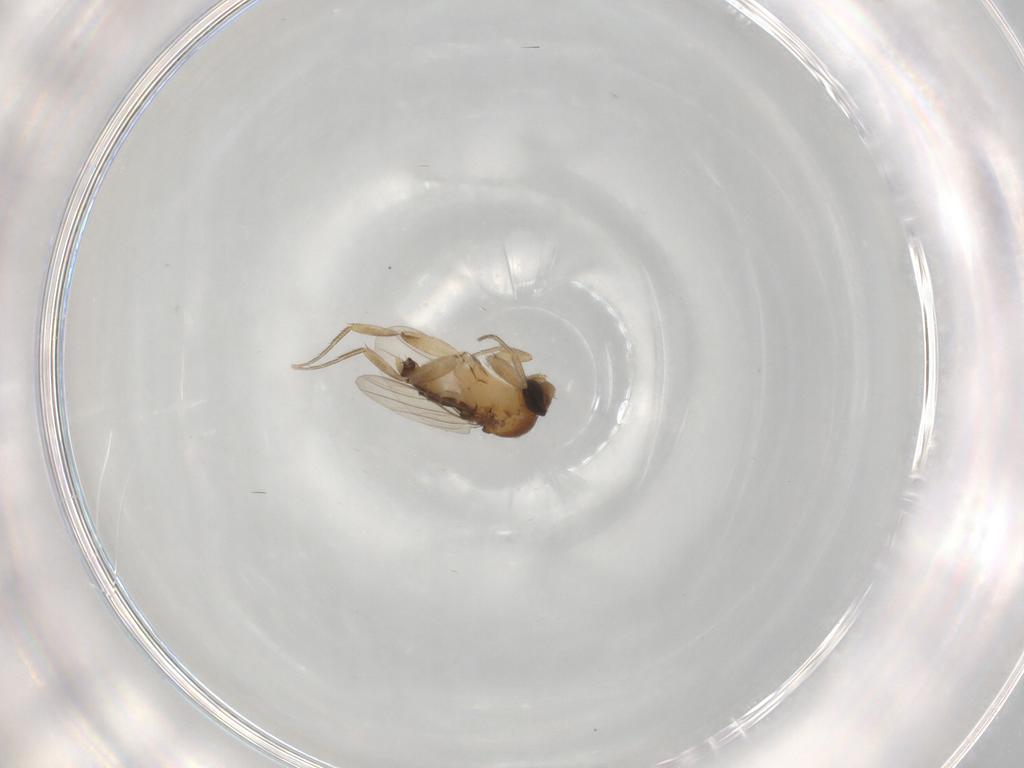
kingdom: Animalia
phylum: Arthropoda
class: Insecta
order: Diptera
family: Phoridae
